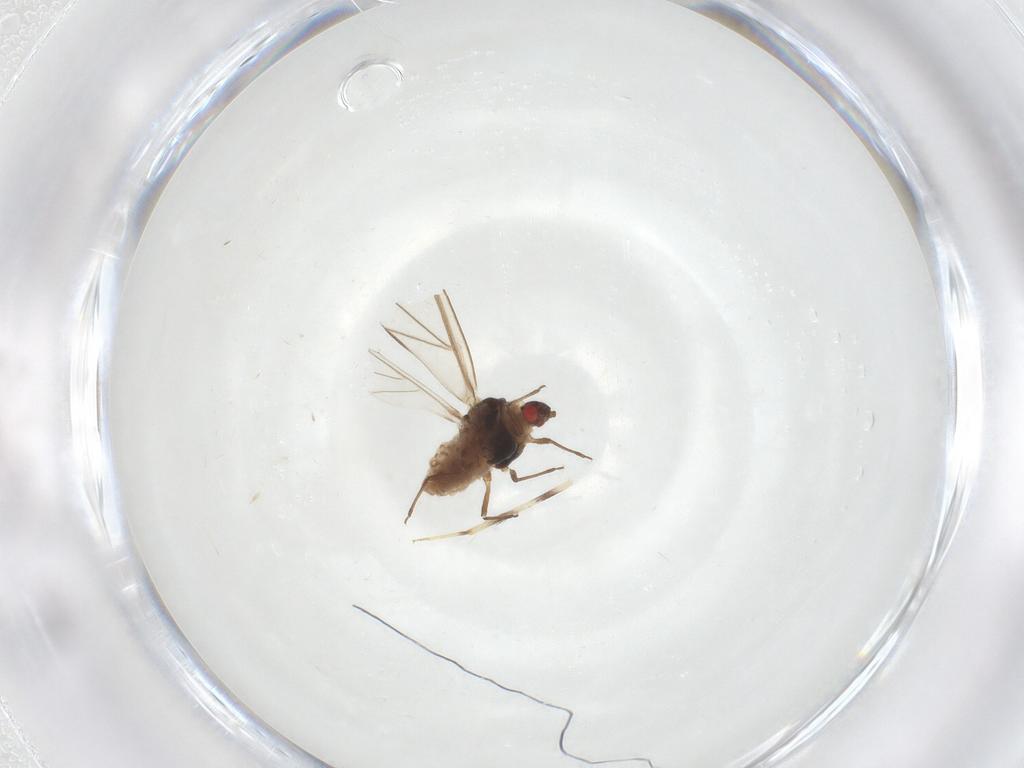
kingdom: Animalia
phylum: Arthropoda
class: Insecta
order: Hemiptera
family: Aphididae
